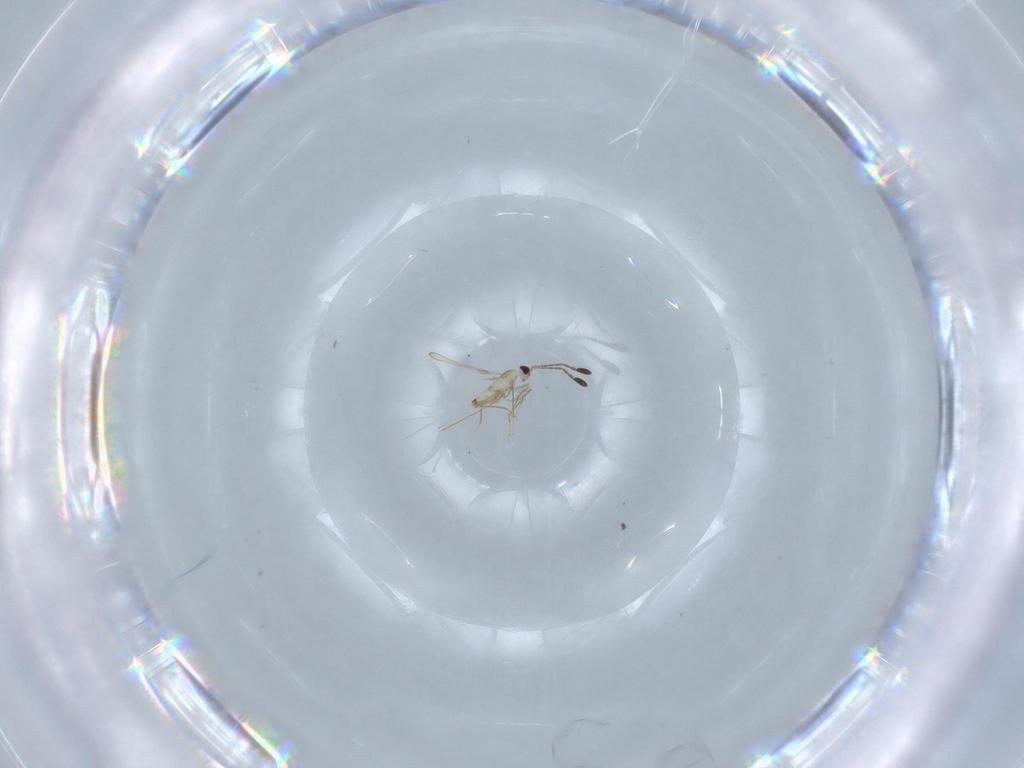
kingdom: Animalia
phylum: Arthropoda
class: Insecta
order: Hymenoptera
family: Mymaridae
